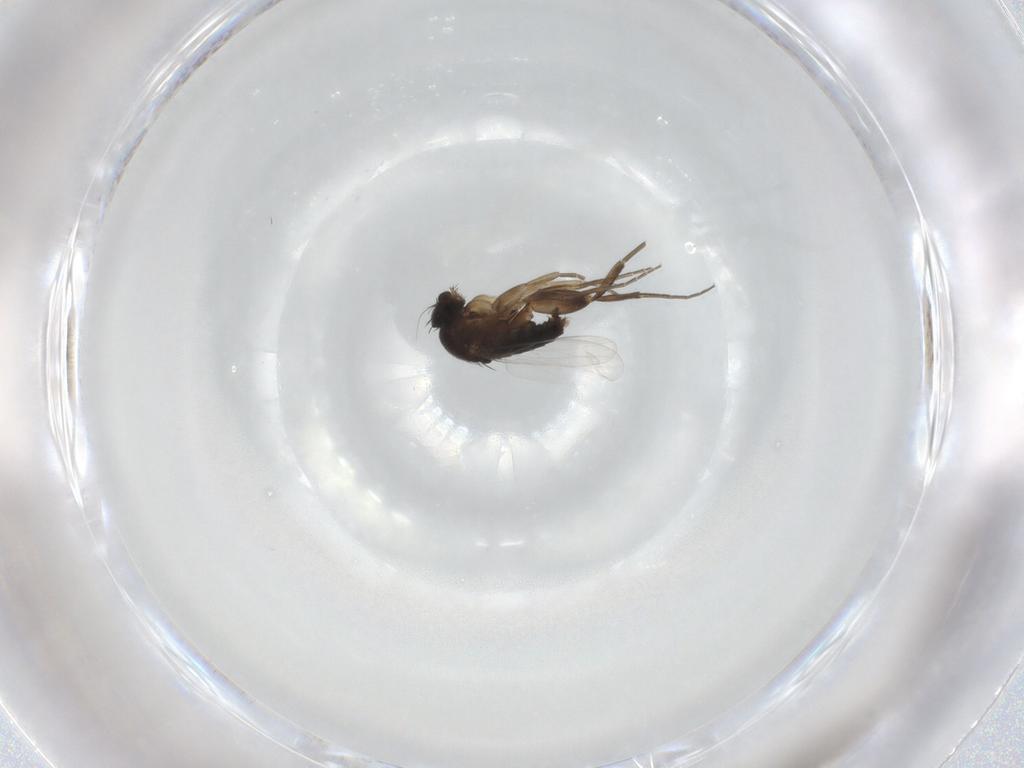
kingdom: Animalia
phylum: Arthropoda
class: Insecta
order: Diptera
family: Phoridae
